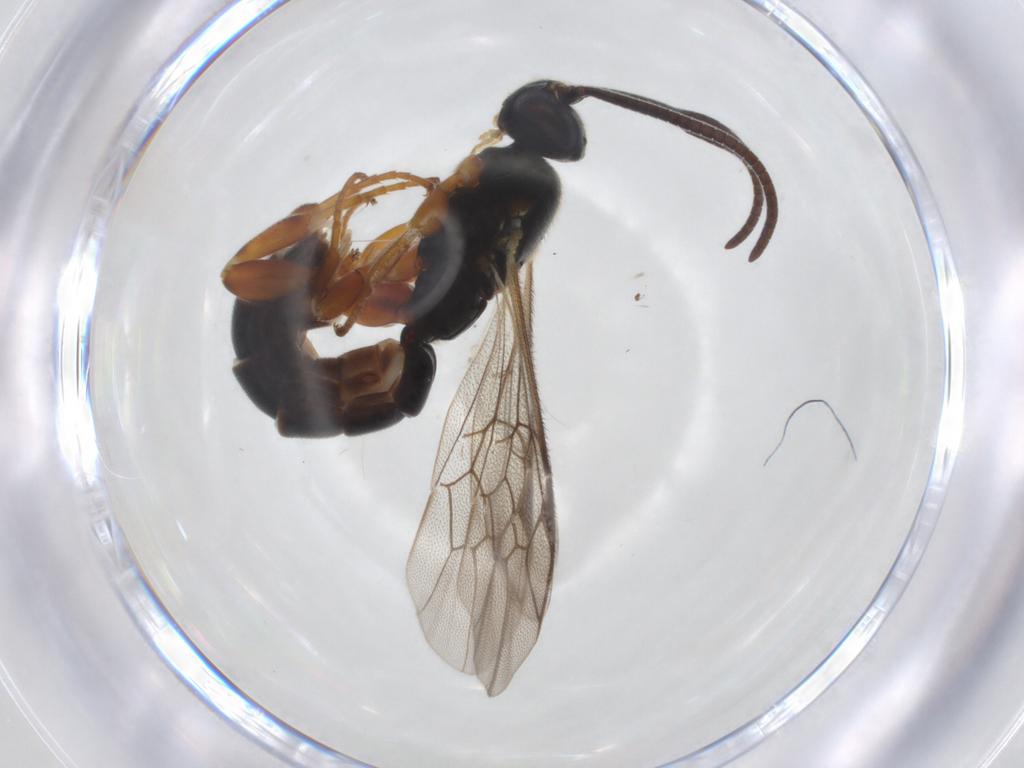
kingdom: Animalia
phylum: Arthropoda
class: Insecta
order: Hymenoptera
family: Ichneumonidae
